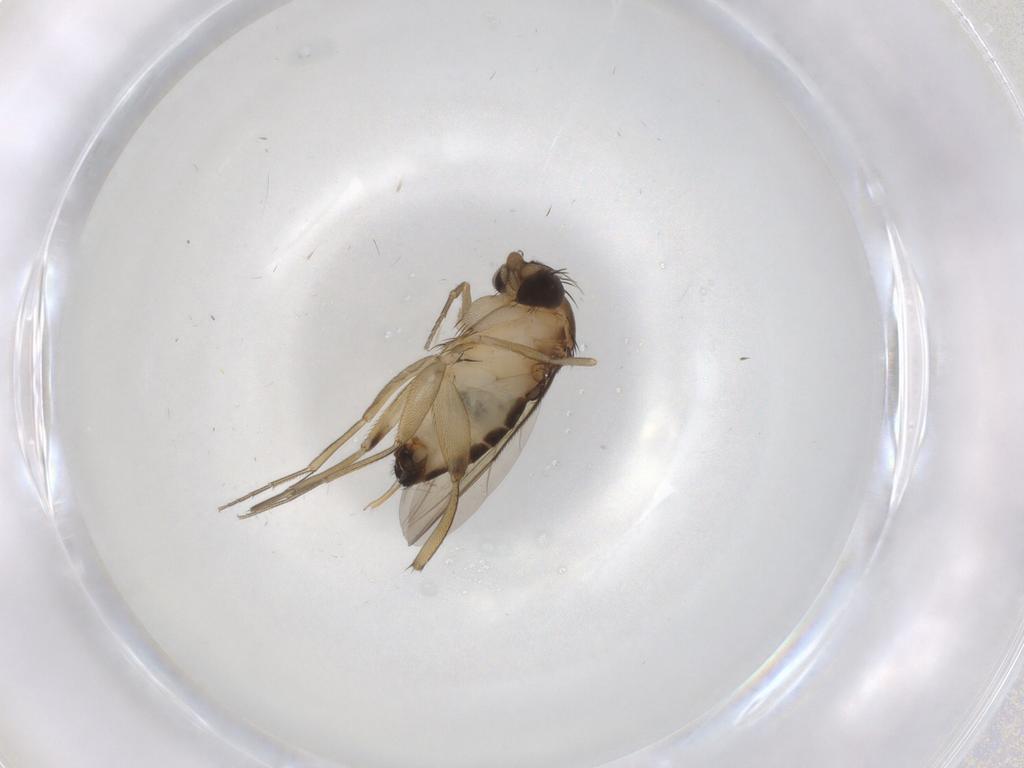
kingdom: Animalia
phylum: Arthropoda
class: Insecta
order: Diptera
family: Phoridae
